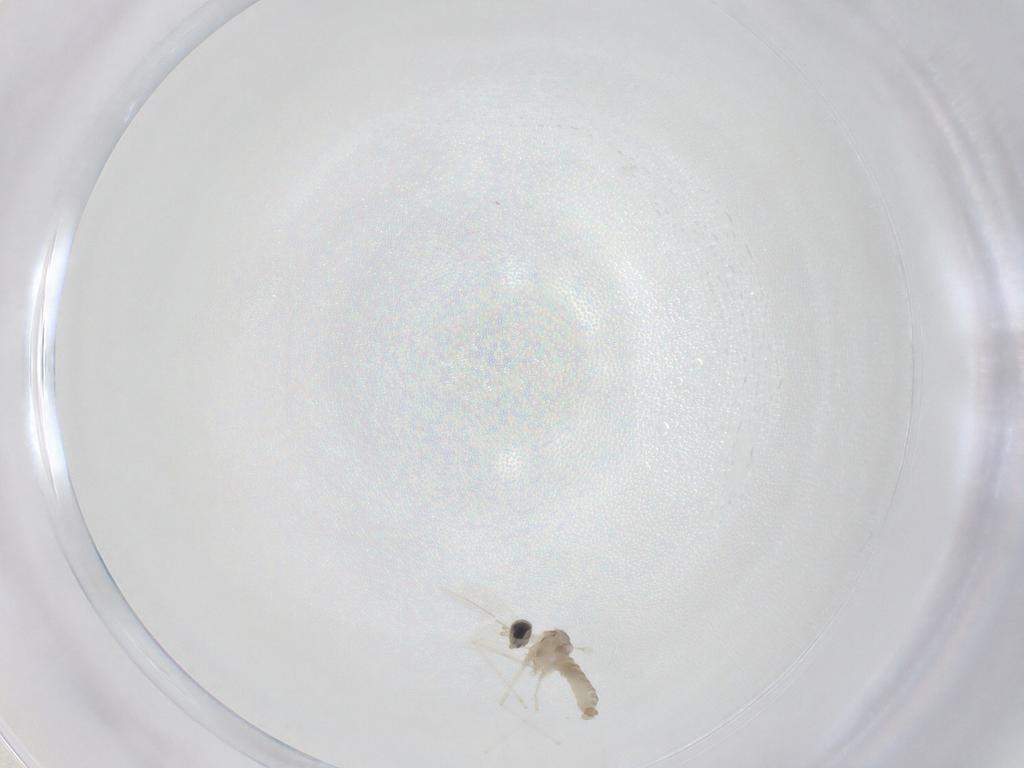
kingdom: Animalia
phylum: Arthropoda
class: Insecta
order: Diptera
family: Cecidomyiidae
